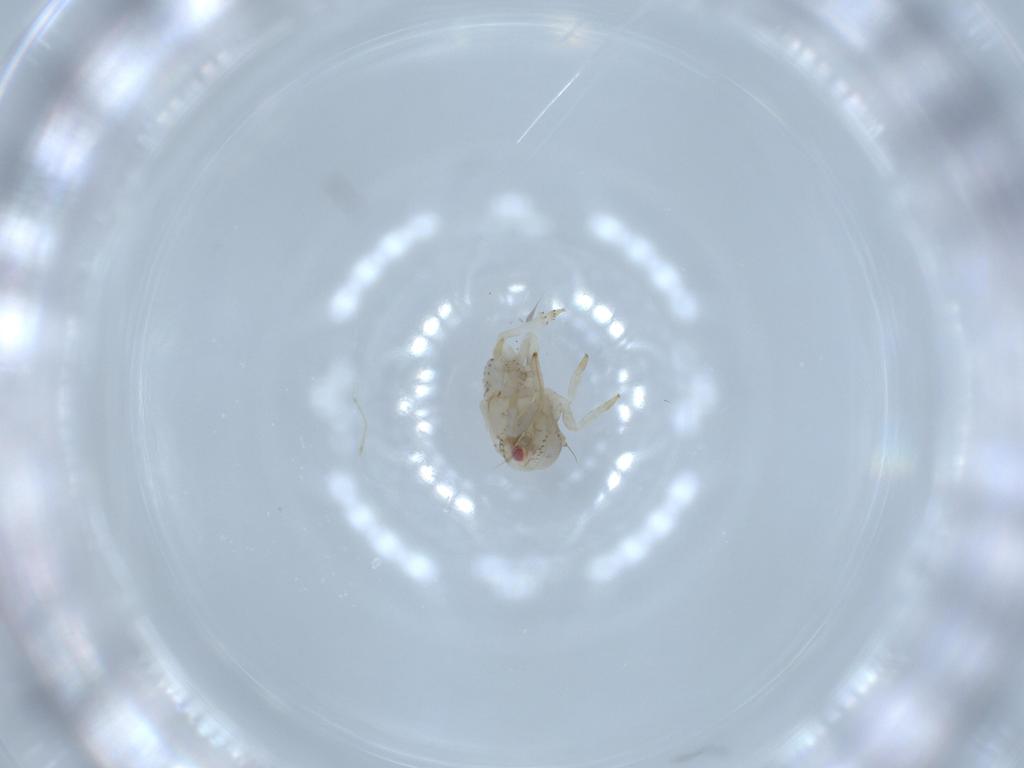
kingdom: Animalia
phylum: Arthropoda
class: Insecta
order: Hemiptera
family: Acanaloniidae
